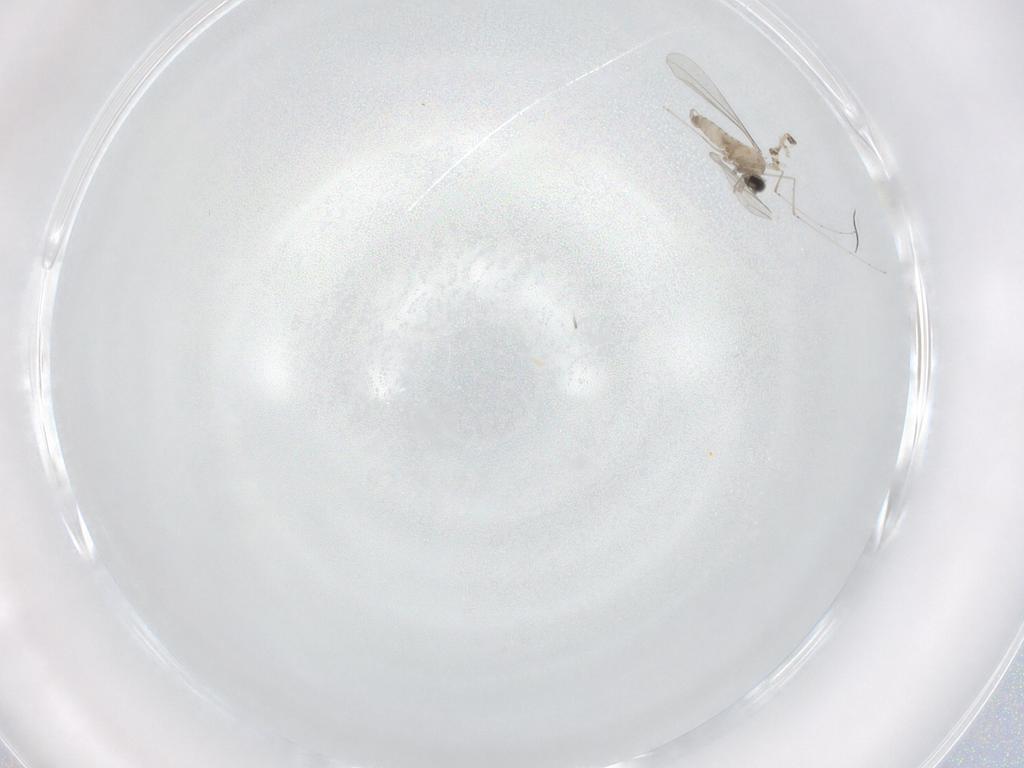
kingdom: Animalia
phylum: Arthropoda
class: Insecta
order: Diptera
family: Cecidomyiidae
